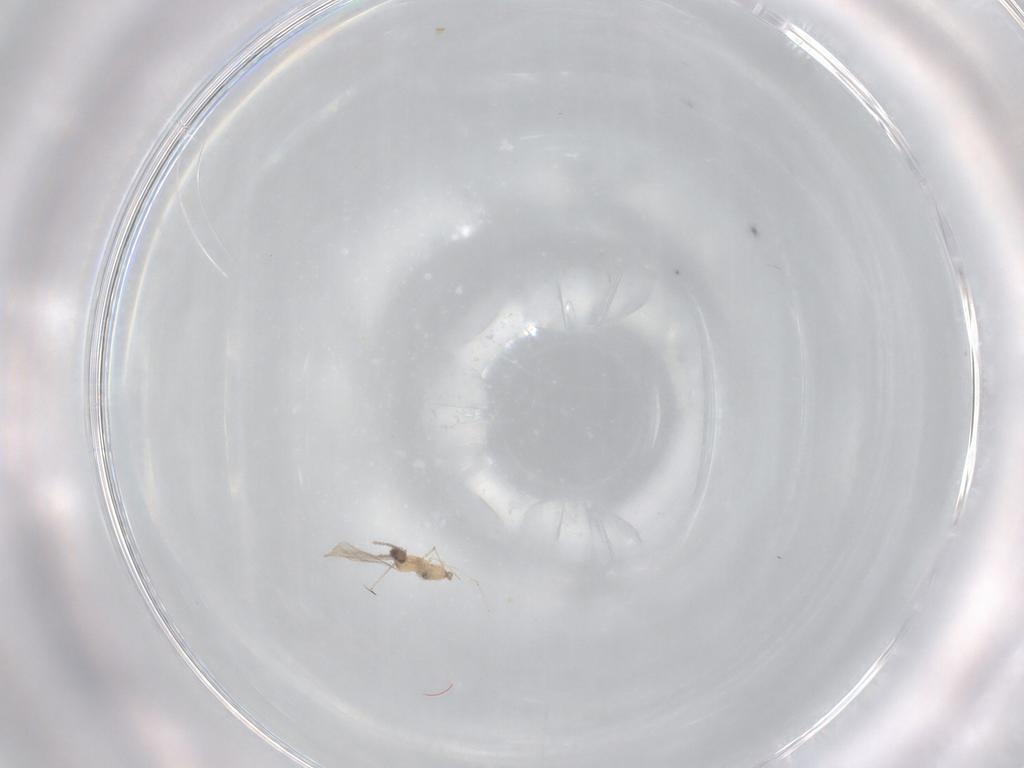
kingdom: Animalia
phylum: Arthropoda
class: Insecta
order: Diptera
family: Cecidomyiidae
